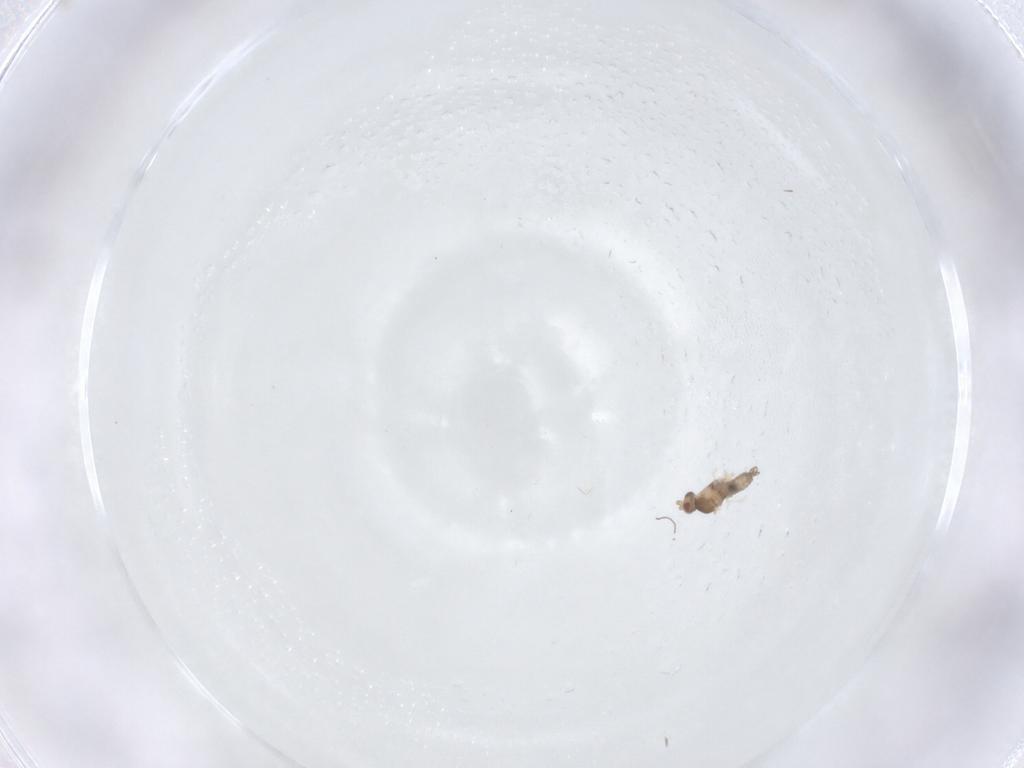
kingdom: Animalia
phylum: Arthropoda
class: Insecta
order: Diptera
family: Cecidomyiidae
